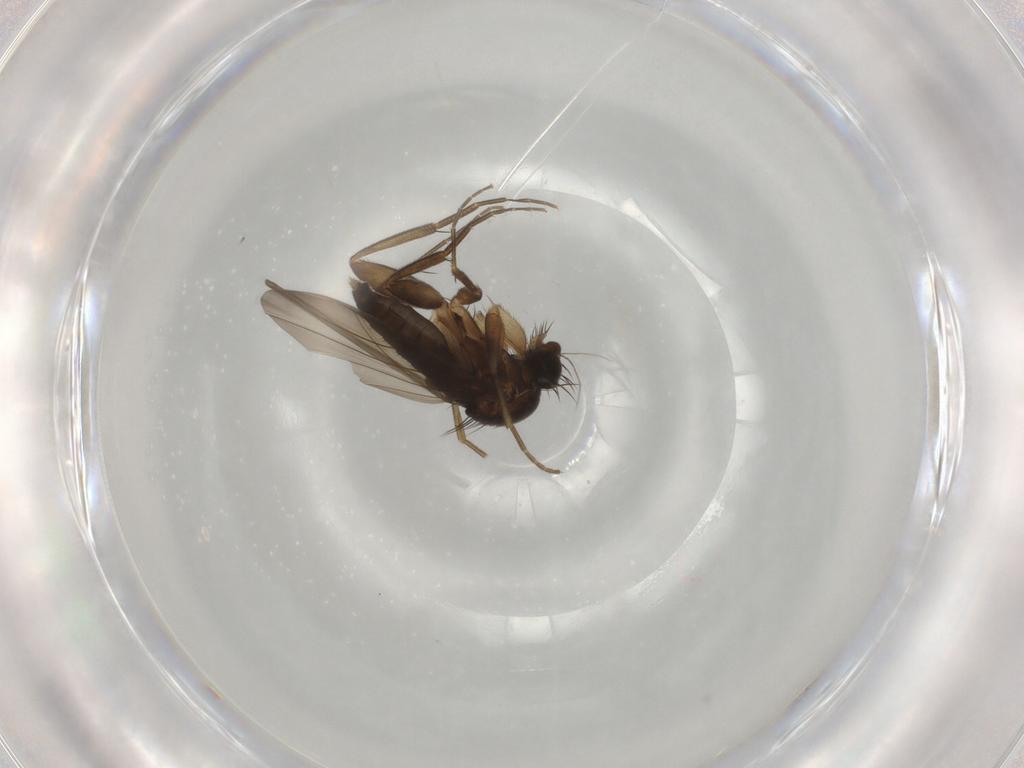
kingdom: Animalia
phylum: Arthropoda
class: Insecta
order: Diptera
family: Phoridae
